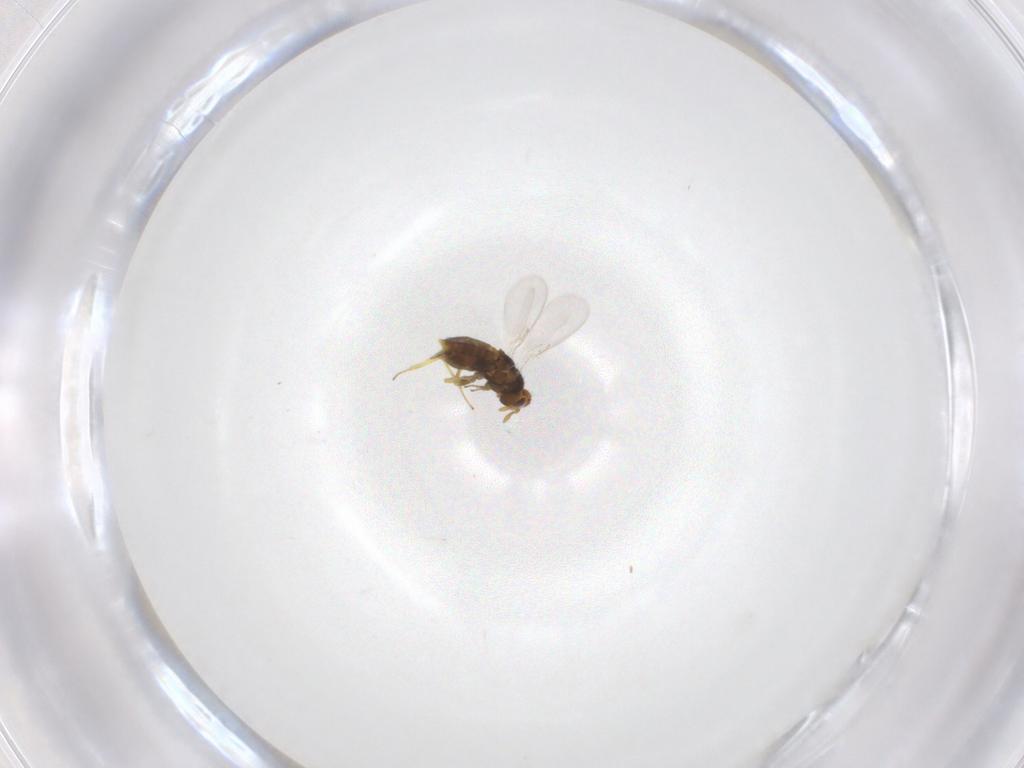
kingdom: Animalia
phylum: Arthropoda
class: Insecta
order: Hymenoptera
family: Aphelinidae
